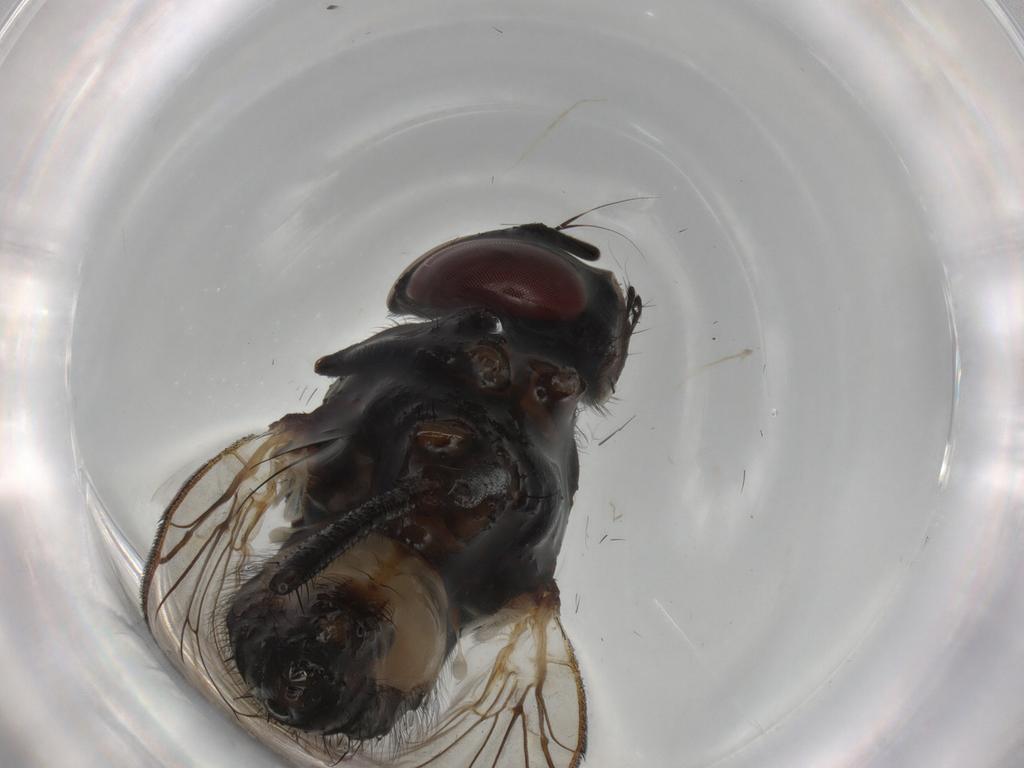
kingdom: Animalia
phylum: Arthropoda
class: Insecta
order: Diptera
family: Anthomyiidae
